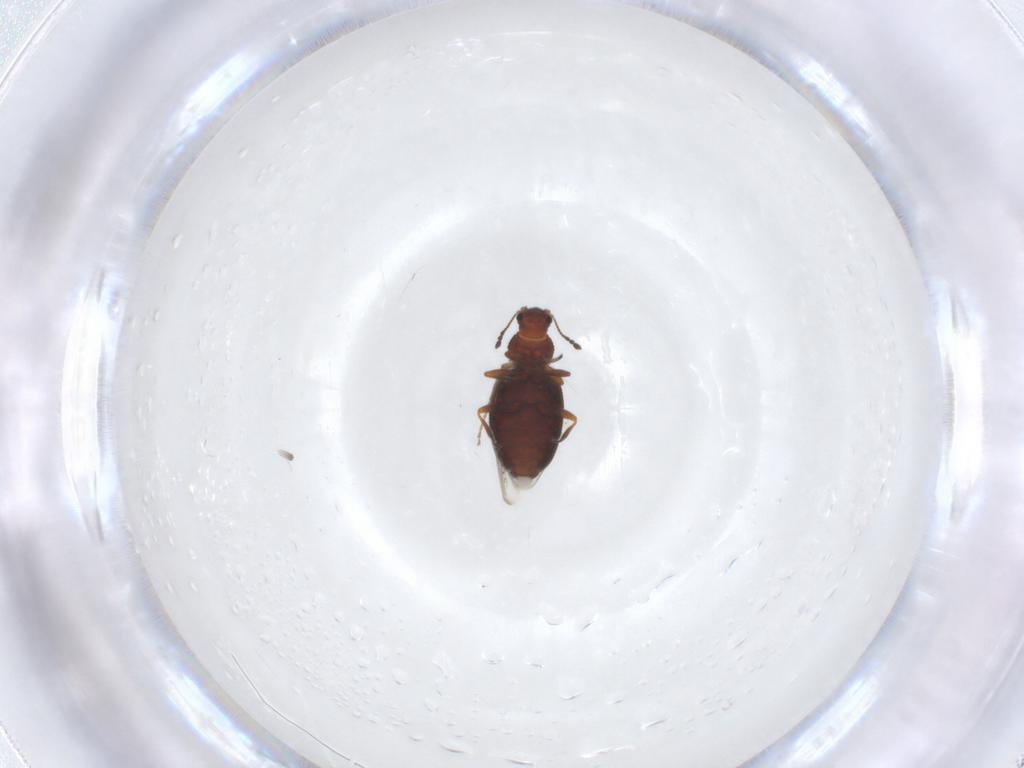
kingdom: Animalia
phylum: Arthropoda
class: Insecta
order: Coleoptera
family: Latridiidae
